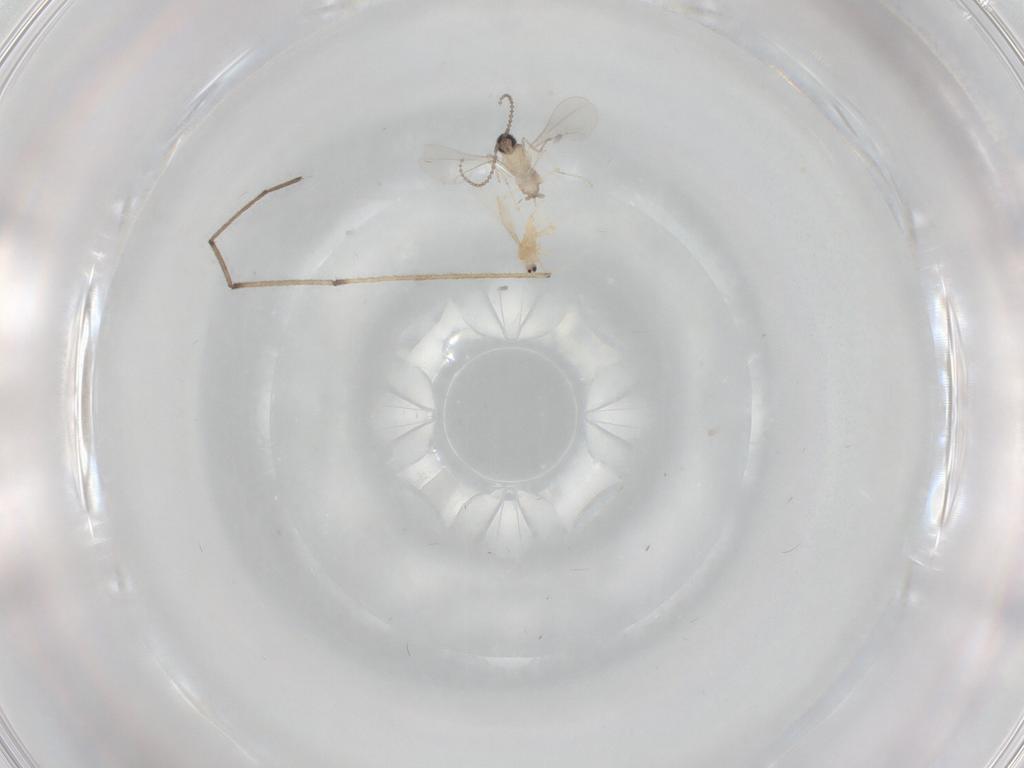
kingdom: Animalia
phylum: Arthropoda
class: Insecta
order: Diptera
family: Cecidomyiidae
